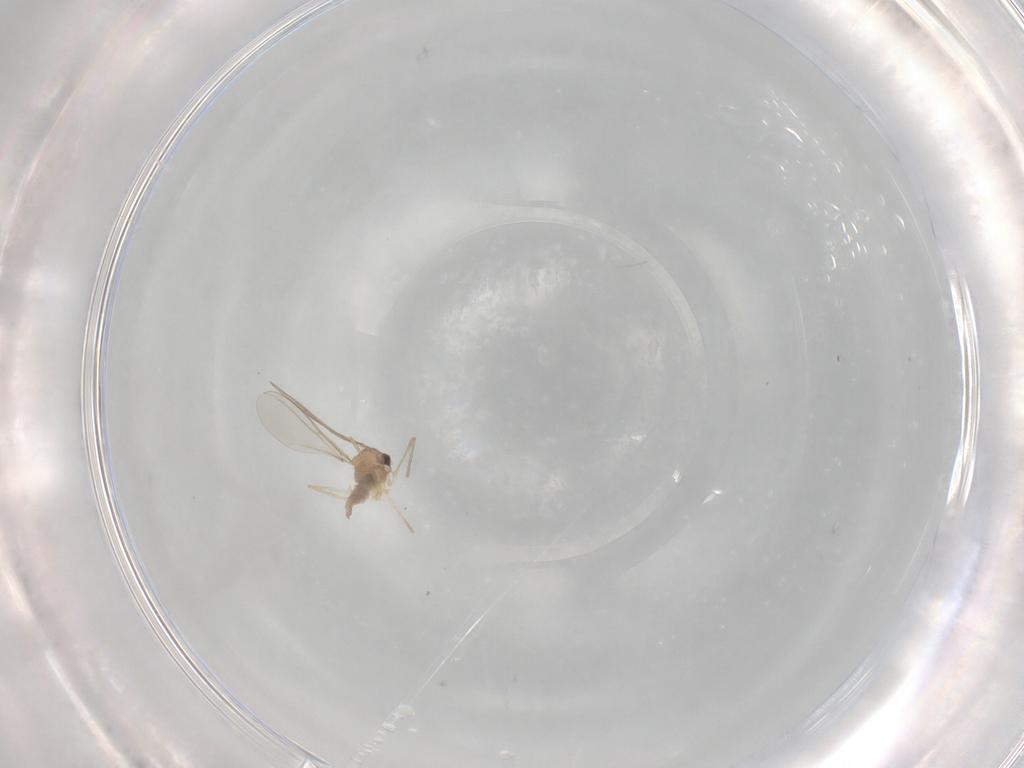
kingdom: Animalia
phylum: Arthropoda
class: Insecta
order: Diptera
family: Cecidomyiidae
